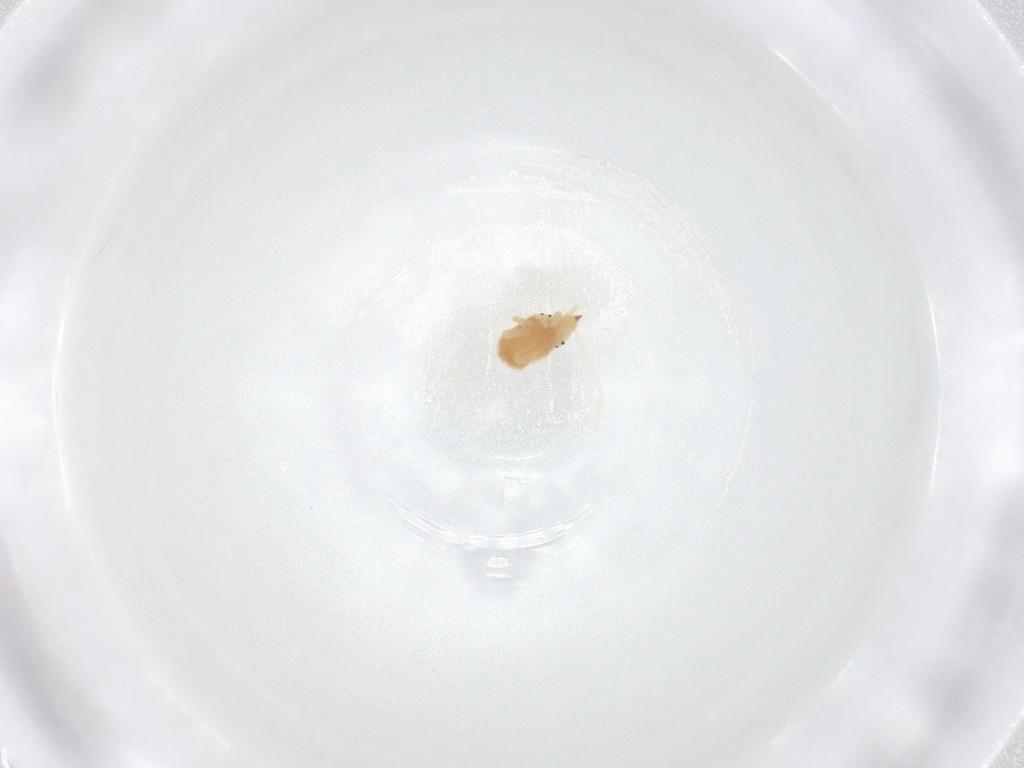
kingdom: Animalia
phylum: Arthropoda
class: Arachnida
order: Trombidiformes
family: Bdellidae
